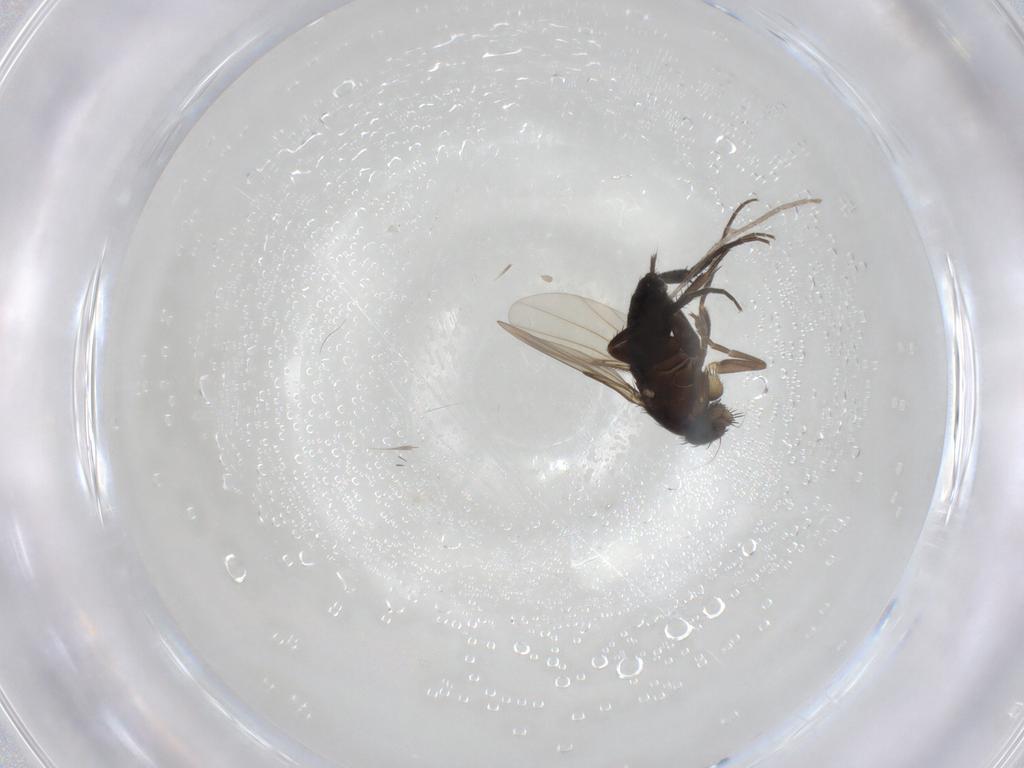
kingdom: Animalia
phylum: Arthropoda
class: Insecta
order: Diptera
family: Phoridae
